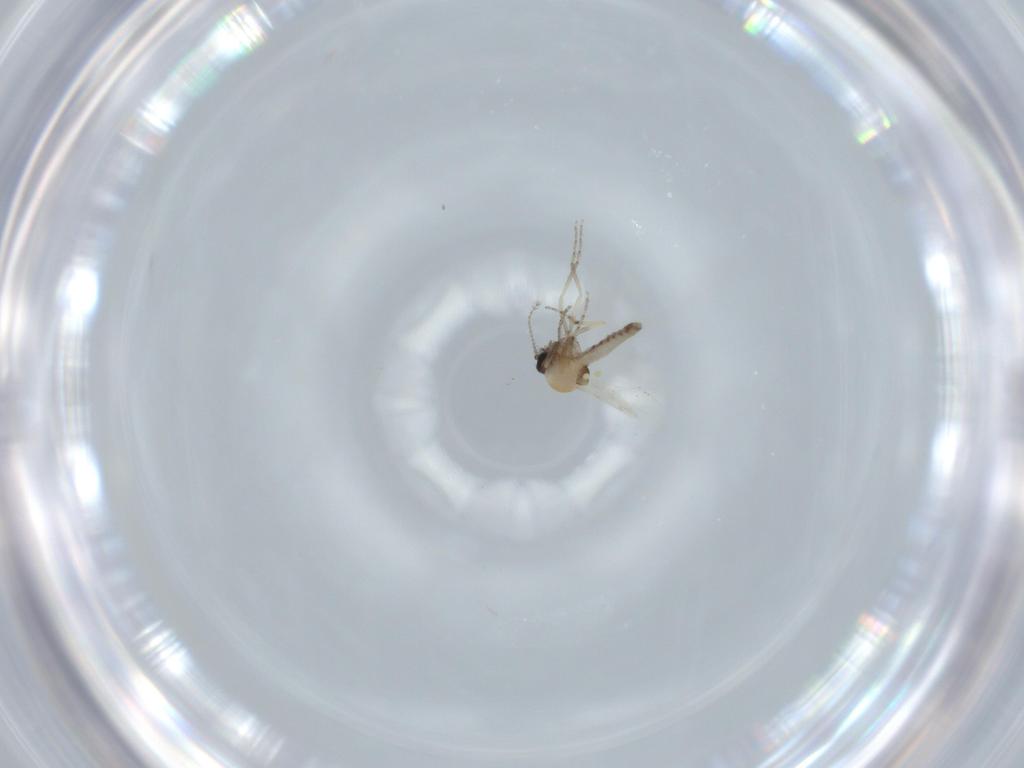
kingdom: Animalia
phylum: Arthropoda
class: Insecta
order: Diptera
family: Ceratopogonidae
